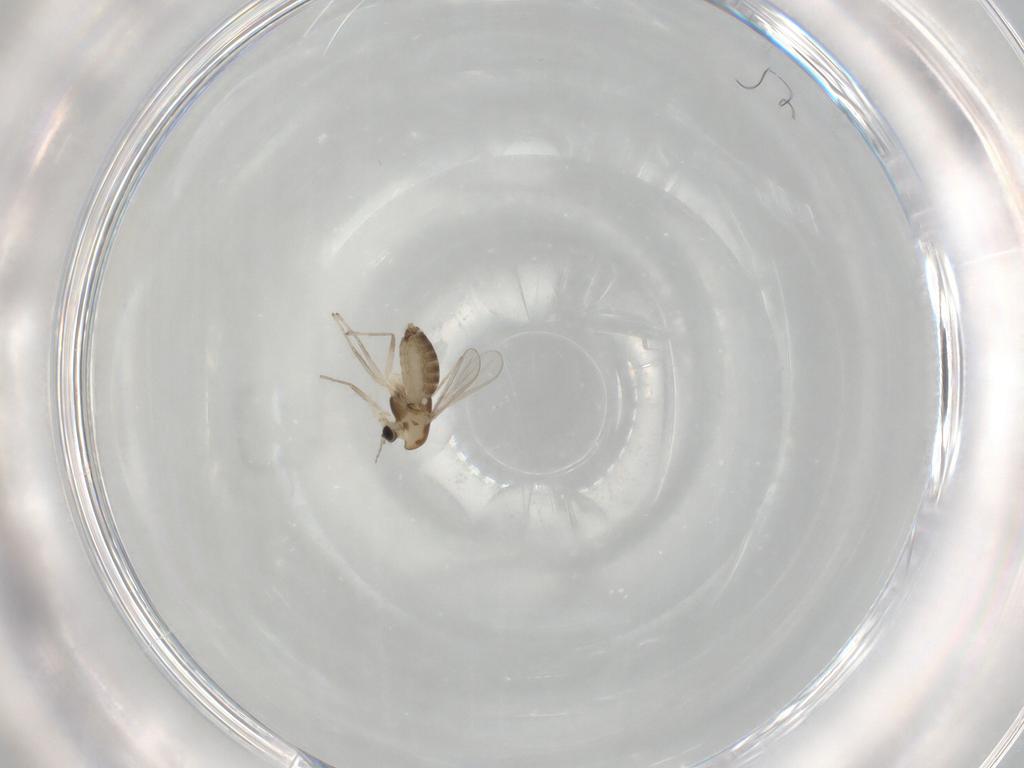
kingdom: Animalia
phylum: Arthropoda
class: Insecta
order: Diptera
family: Chironomidae
